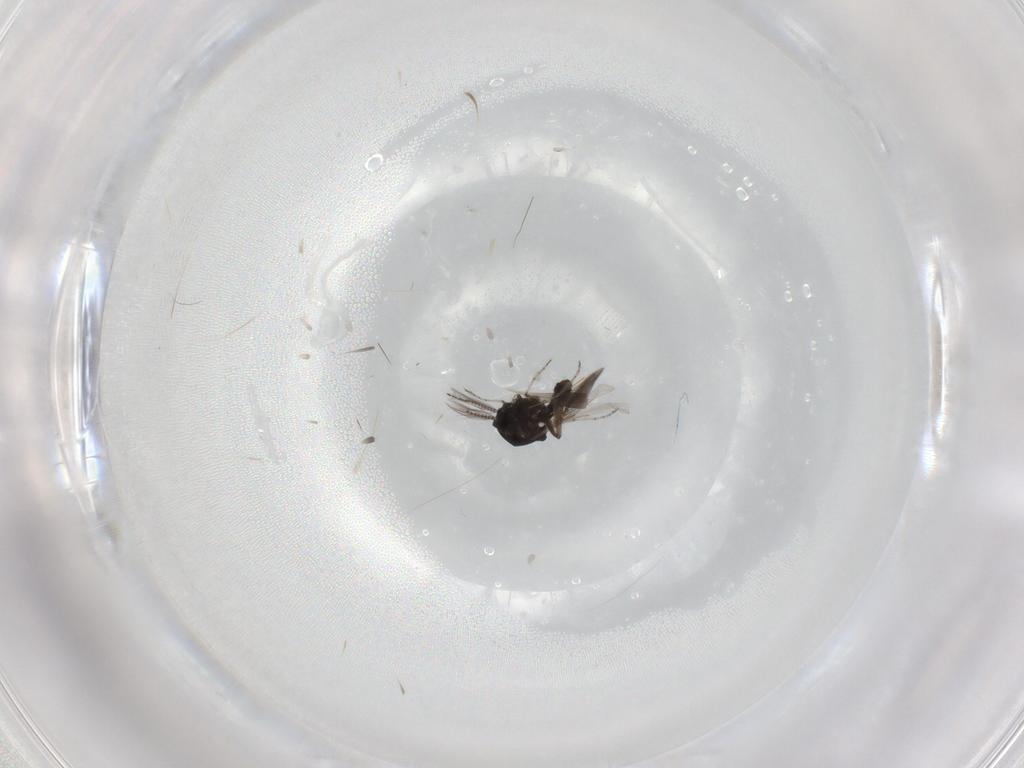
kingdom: Animalia
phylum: Arthropoda
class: Insecta
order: Diptera
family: Ceratopogonidae
